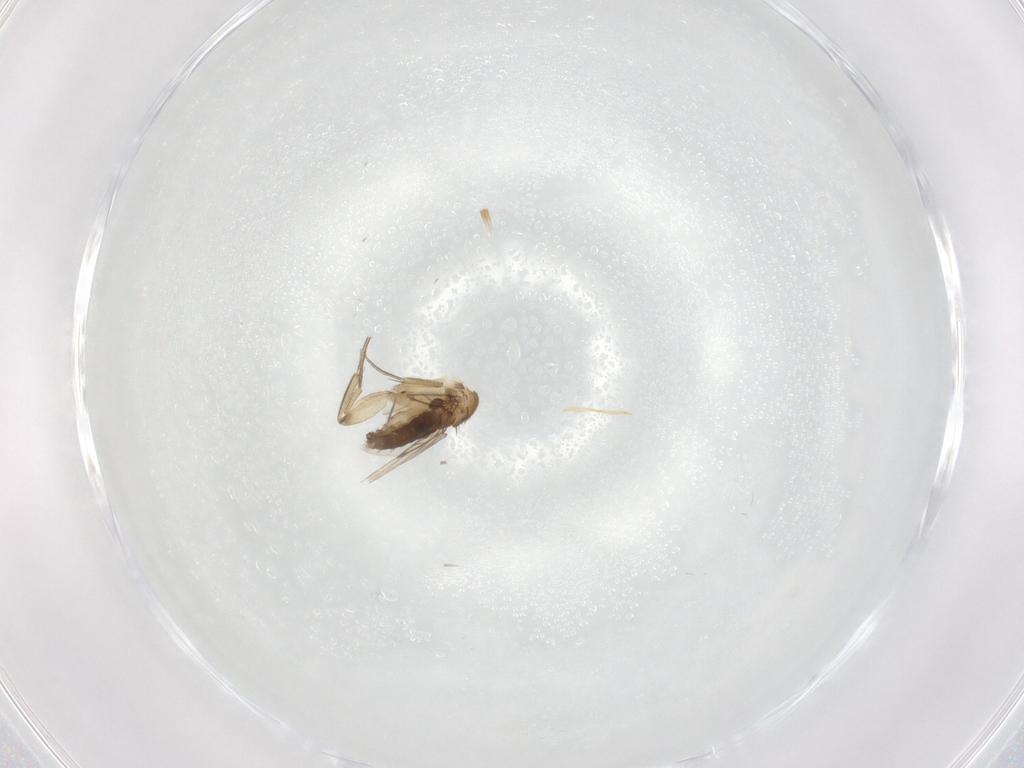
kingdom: Animalia
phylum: Arthropoda
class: Insecta
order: Diptera
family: Phoridae
